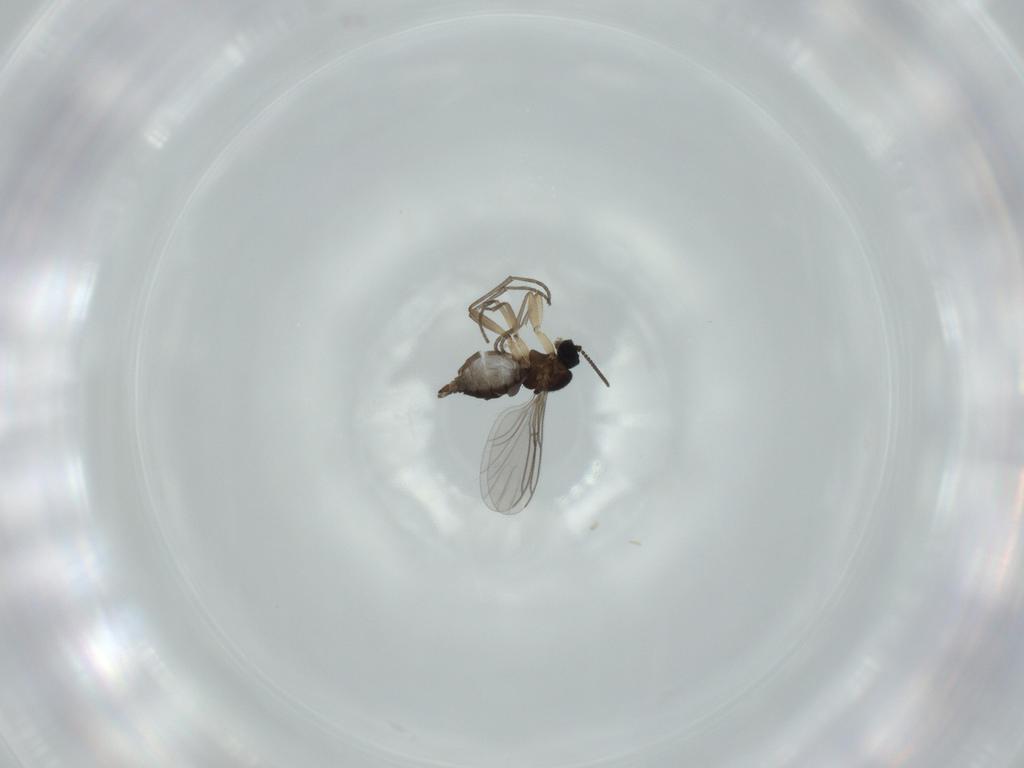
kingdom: Animalia
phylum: Arthropoda
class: Insecta
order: Diptera
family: Sciaridae
